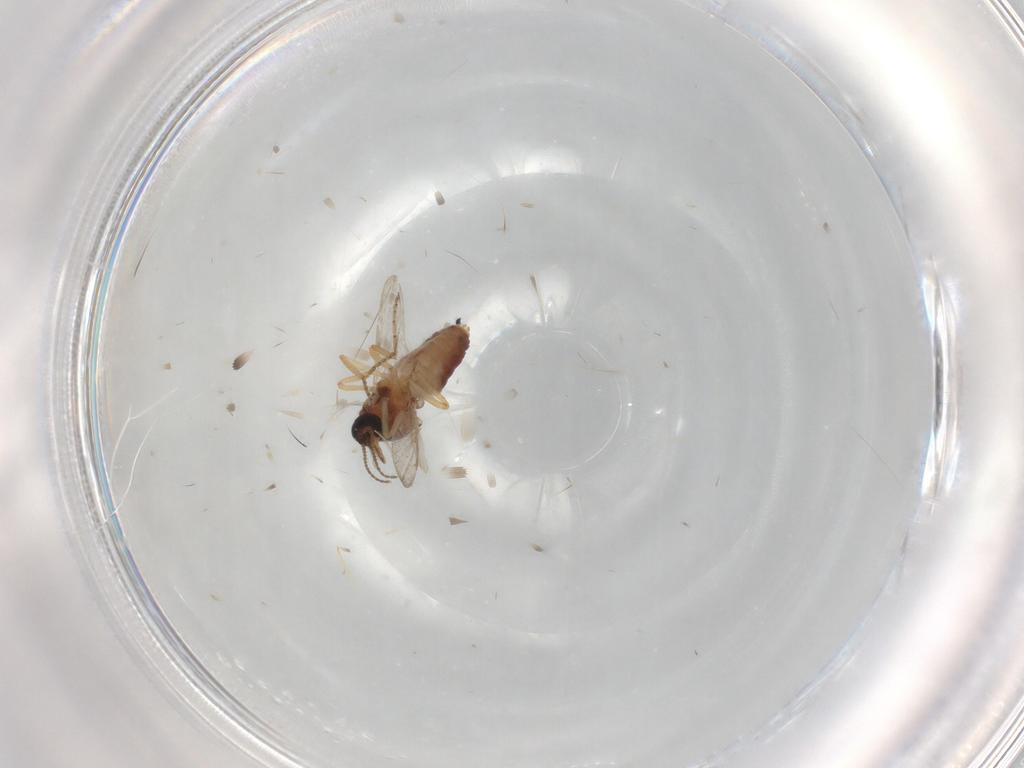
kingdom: Animalia
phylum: Arthropoda
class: Insecta
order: Diptera
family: Ceratopogonidae
